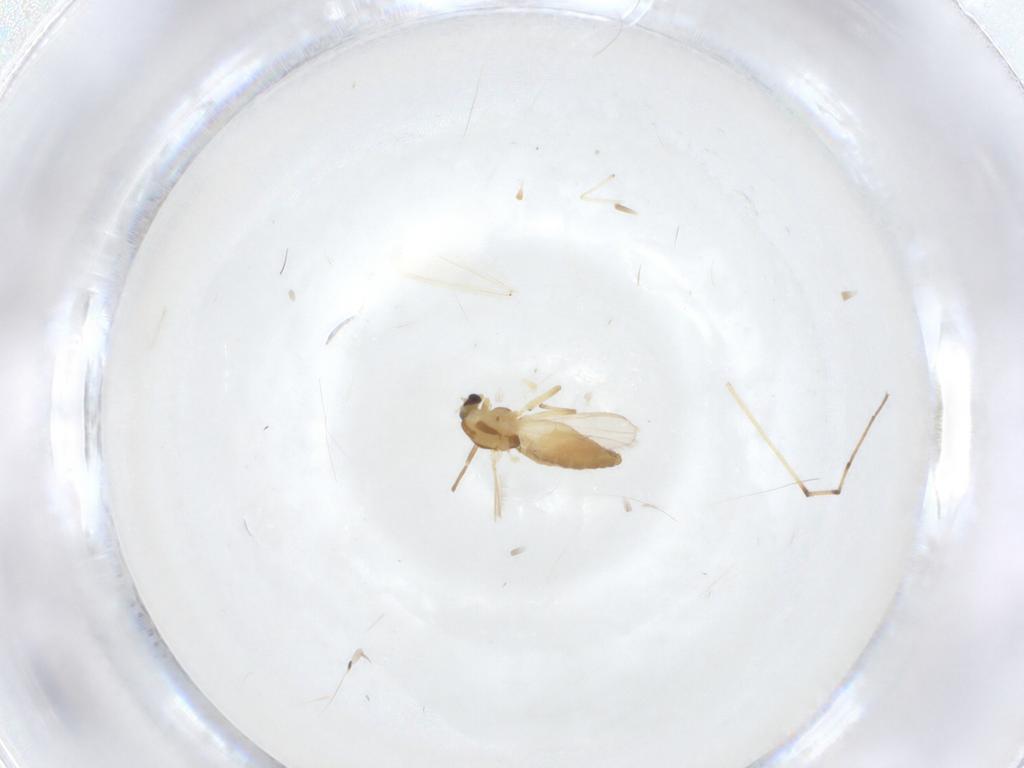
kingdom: Animalia
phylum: Arthropoda
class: Insecta
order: Diptera
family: Chironomidae
